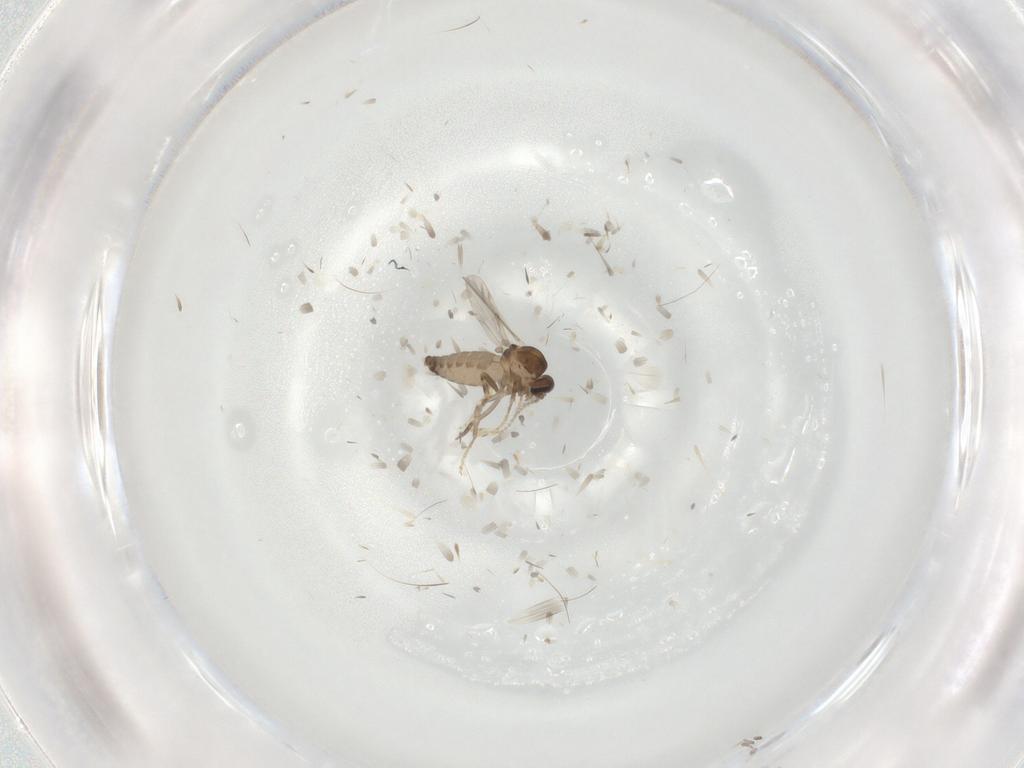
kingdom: Animalia
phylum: Arthropoda
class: Insecta
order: Diptera
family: Ceratopogonidae
